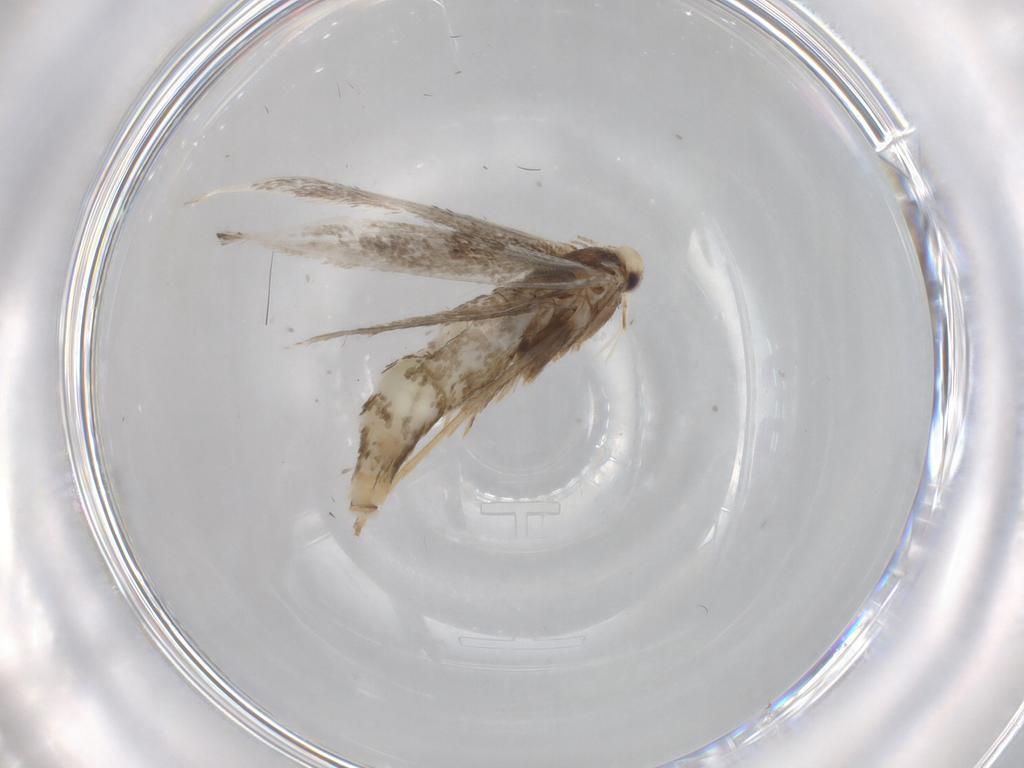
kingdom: Animalia
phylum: Arthropoda
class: Insecta
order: Lepidoptera
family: Gracillariidae
